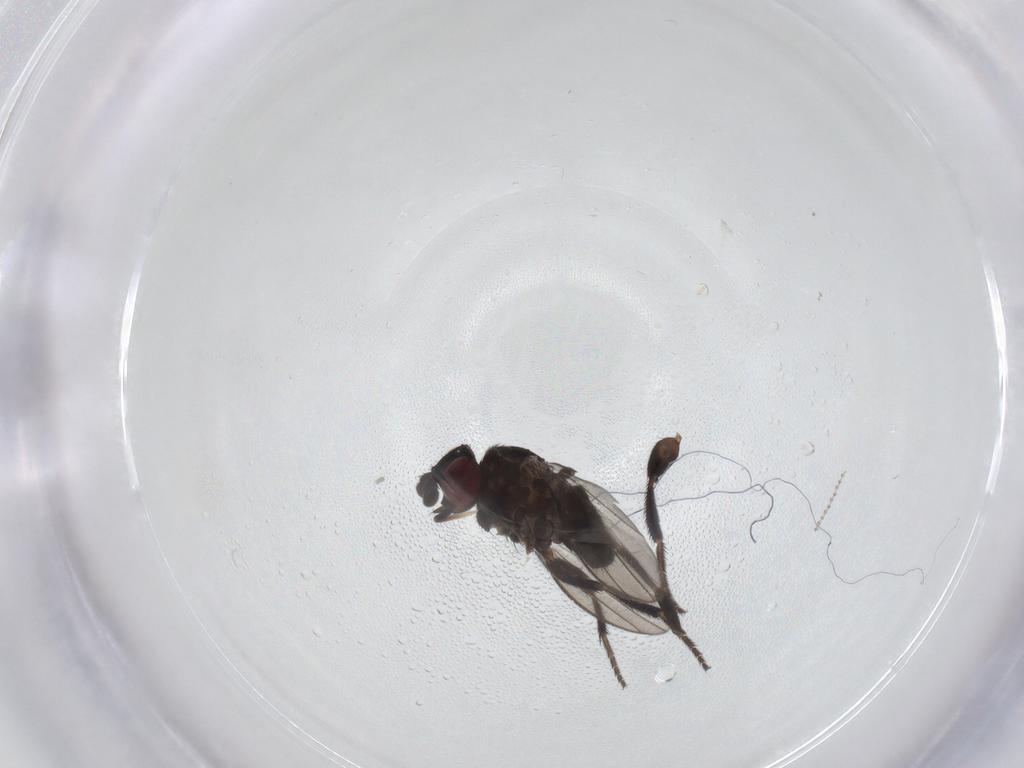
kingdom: Animalia
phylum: Arthropoda
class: Insecta
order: Diptera
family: Milichiidae
